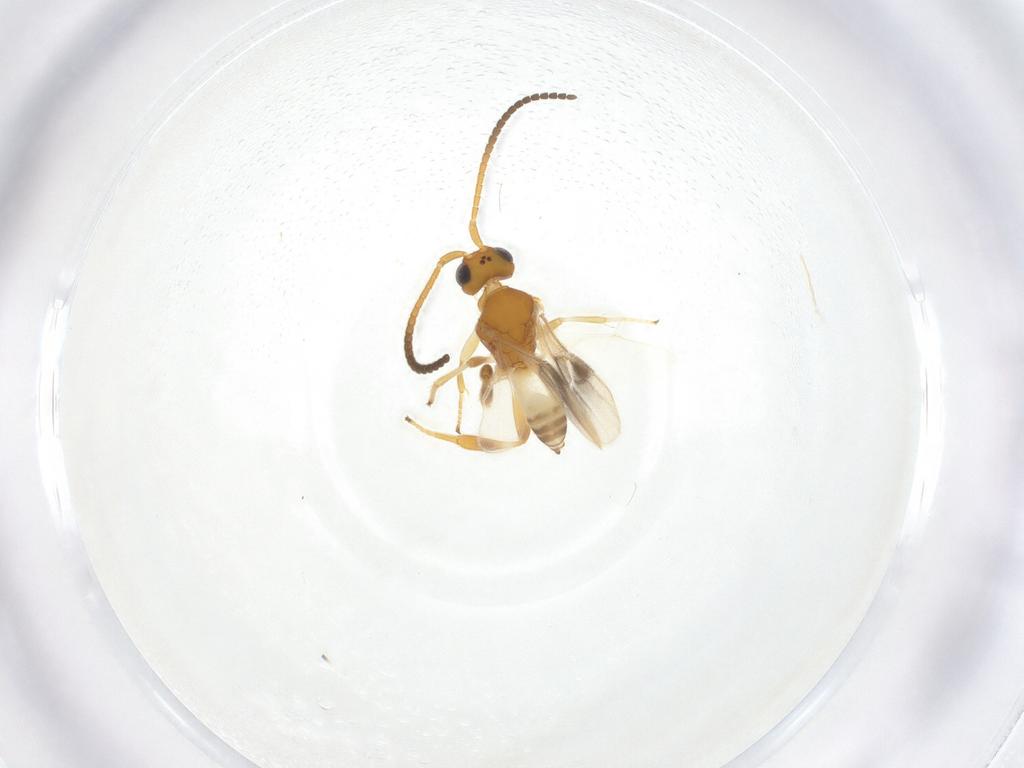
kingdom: Animalia
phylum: Arthropoda
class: Insecta
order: Hymenoptera
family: Braconidae
